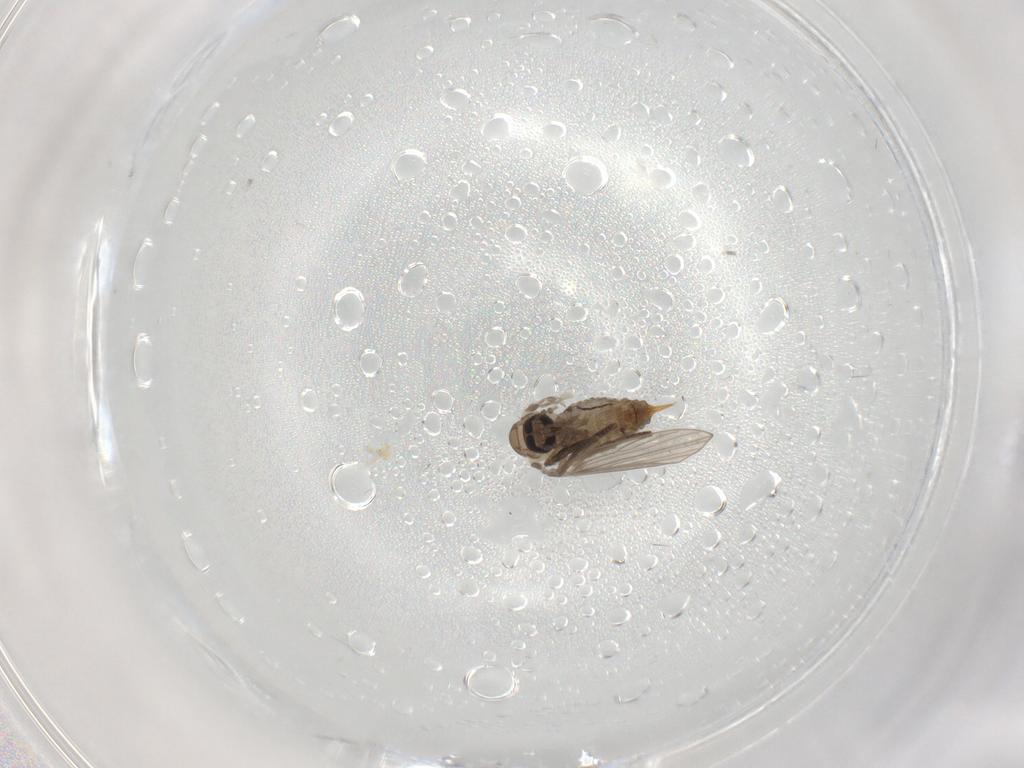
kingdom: Animalia
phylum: Arthropoda
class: Insecta
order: Diptera
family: Psychodidae
